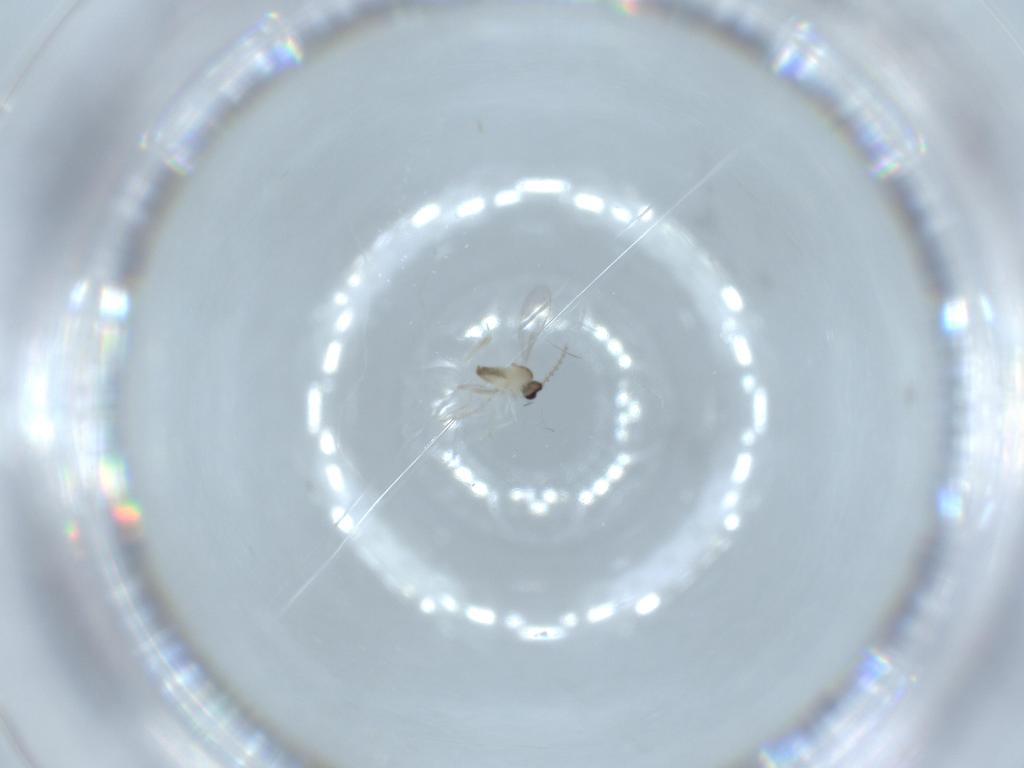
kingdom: Animalia
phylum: Arthropoda
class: Insecta
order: Diptera
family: Cecidomyiidae
